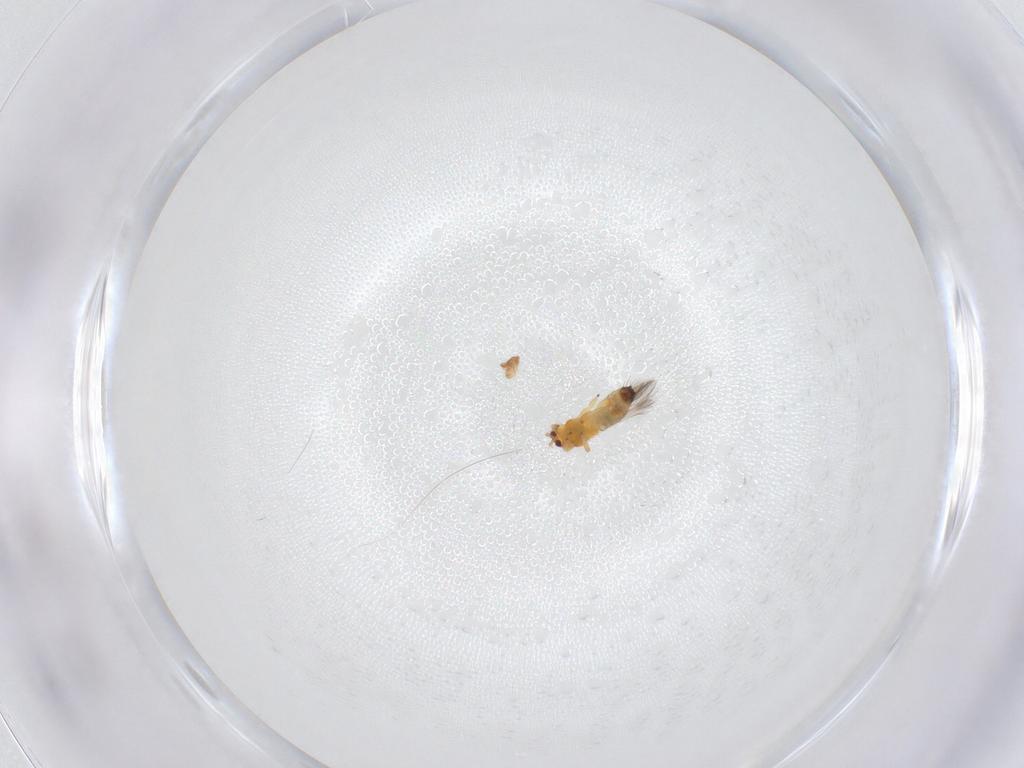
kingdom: Animalia
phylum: Arthropoda
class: Insecta
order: Thysanoptera
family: Thripidae
